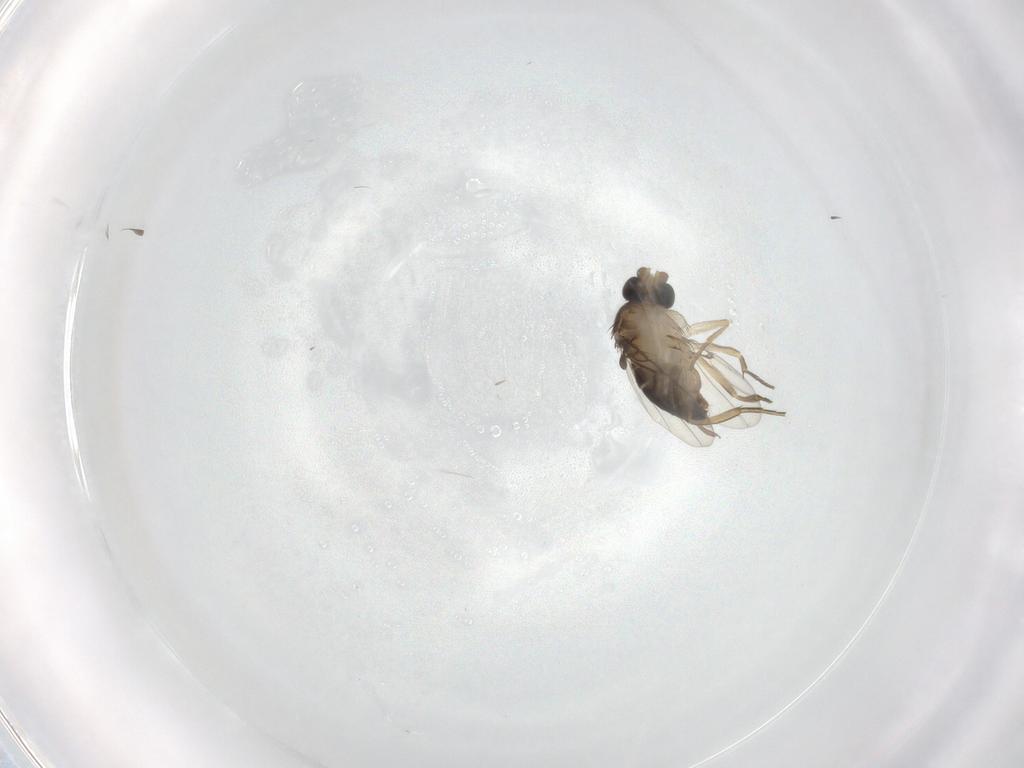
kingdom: Animalia
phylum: Arthropoda
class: Insecta
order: Diptera
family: Phoridae
